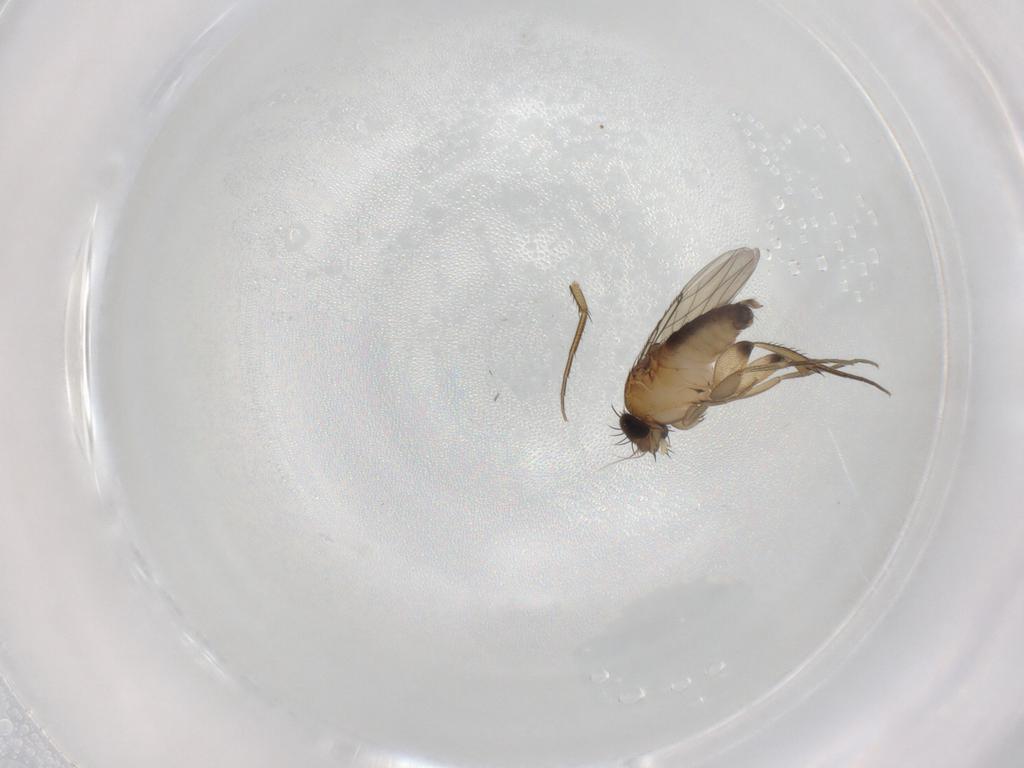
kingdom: Animalia
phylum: Arthropoda
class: Insecta
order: Diptera
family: Phoridae
